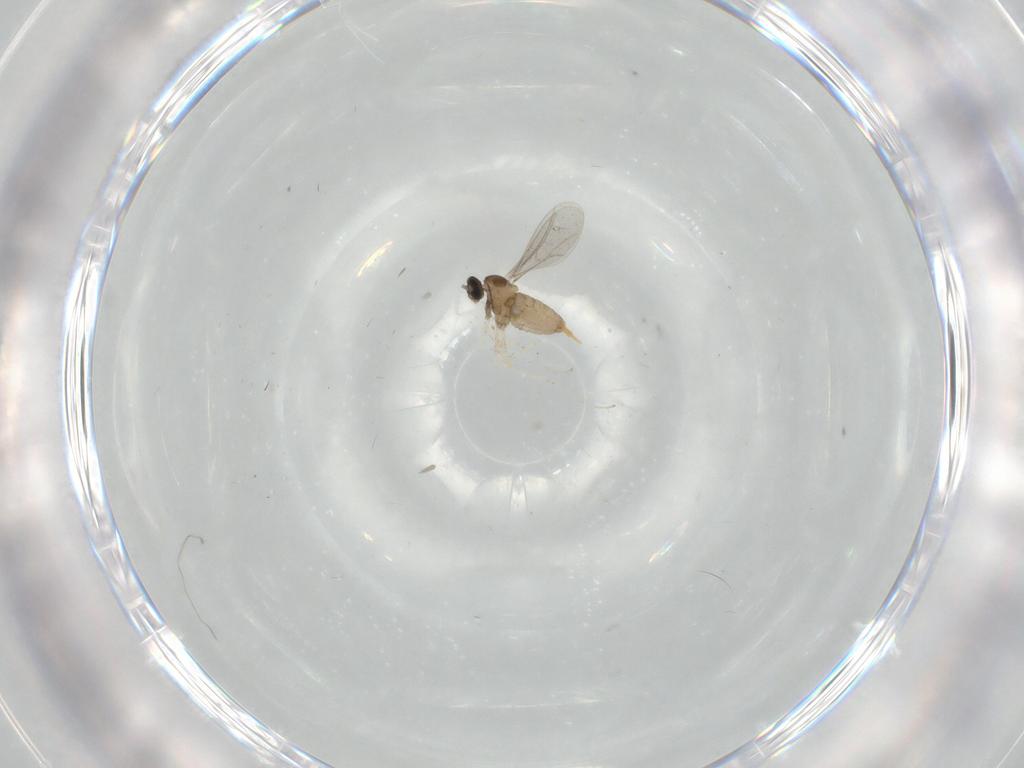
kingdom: Animalia
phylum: Arthropoda
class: Insecta
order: Diptera
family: Cecidomyiidae
